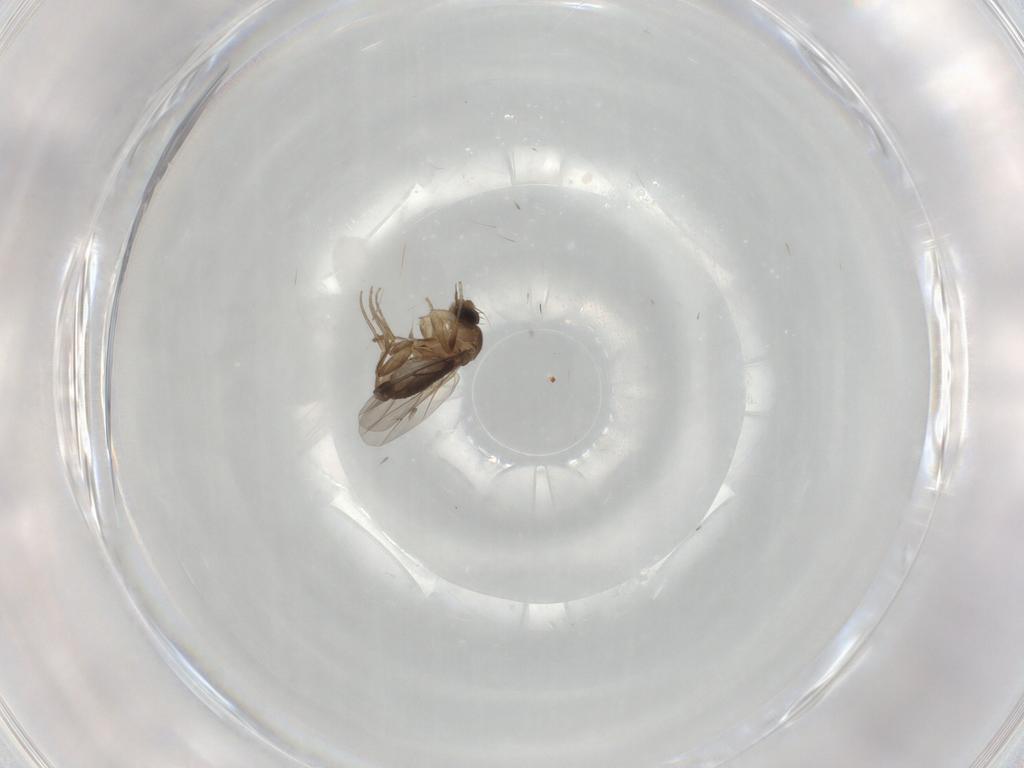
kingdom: Animalia
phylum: Arthropoda
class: Insecta
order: Diptera
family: Phoridae
